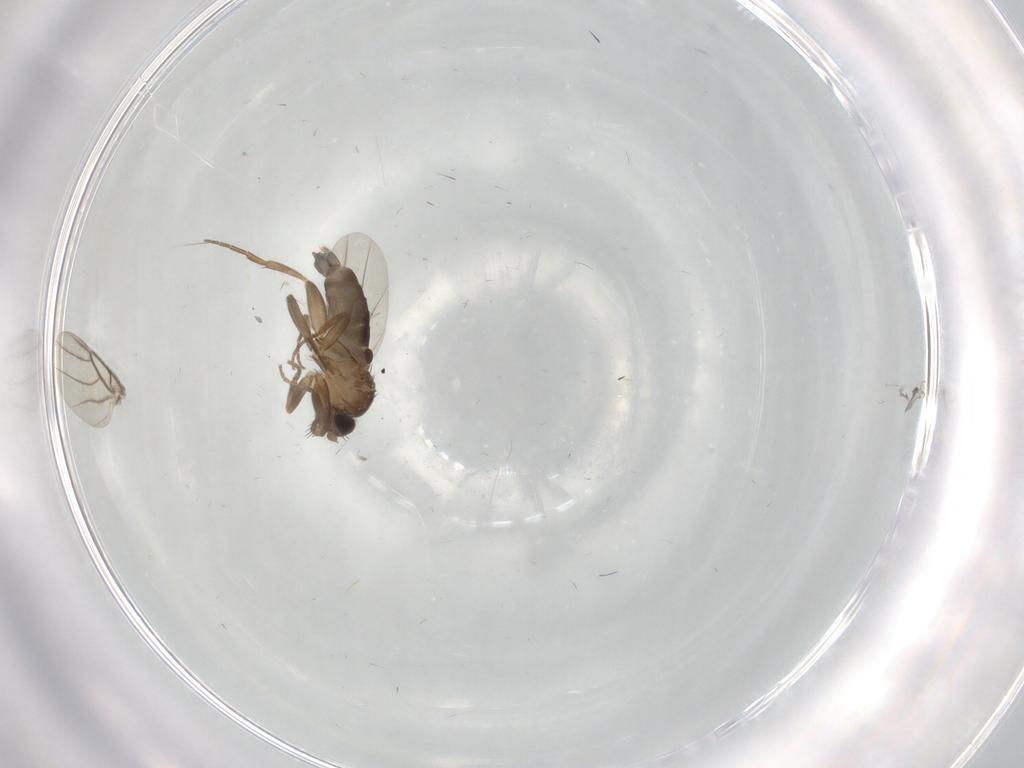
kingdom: Animalia
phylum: Arthropoda
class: Insecta
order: Diptera
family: Phoridae
